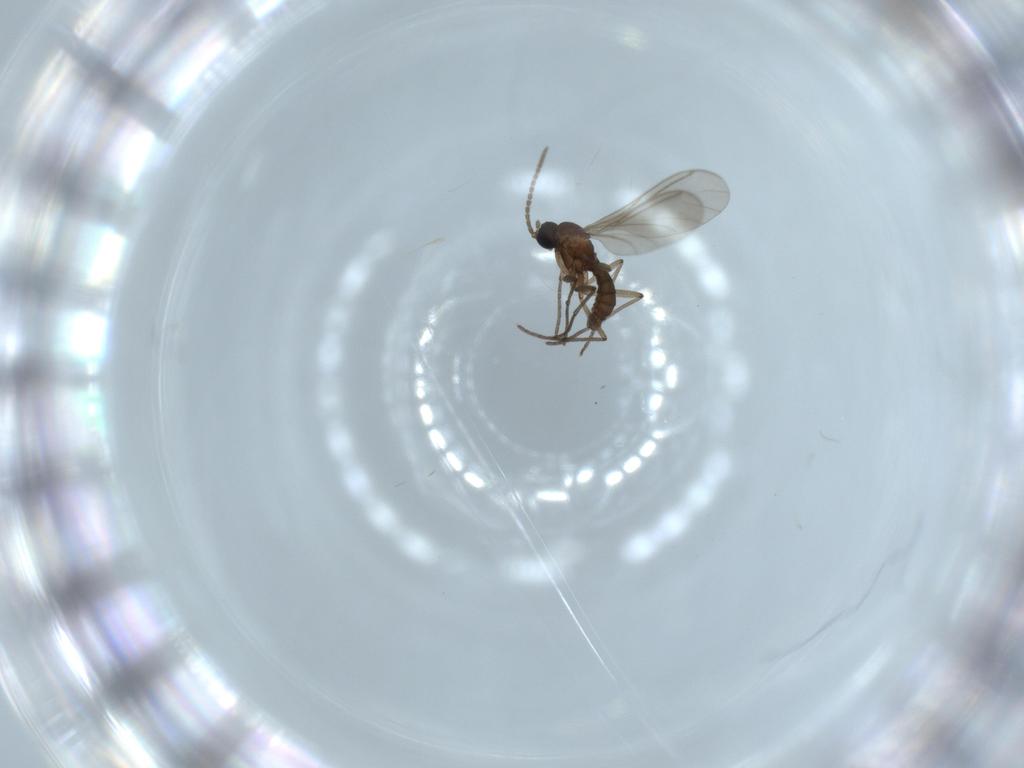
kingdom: Animalia
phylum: Arthropoda
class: Insecta
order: Diptera
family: Sciaridae
